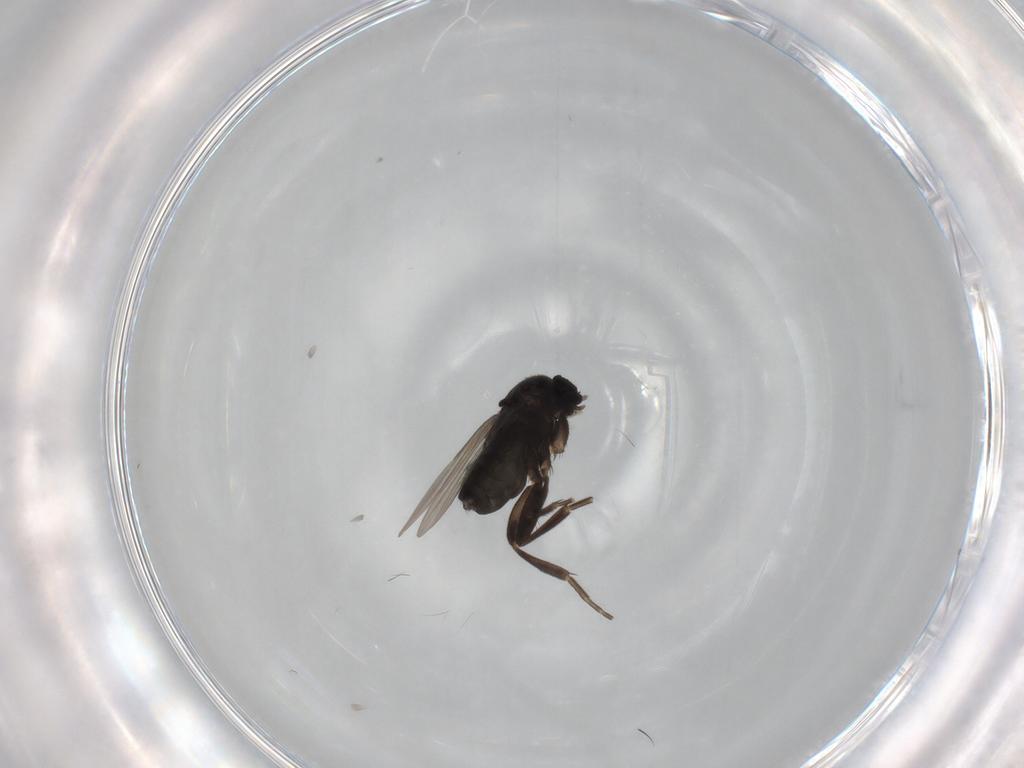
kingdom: Animalia
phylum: Arthropoda
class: Insecta
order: Diptera
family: Phoridae
